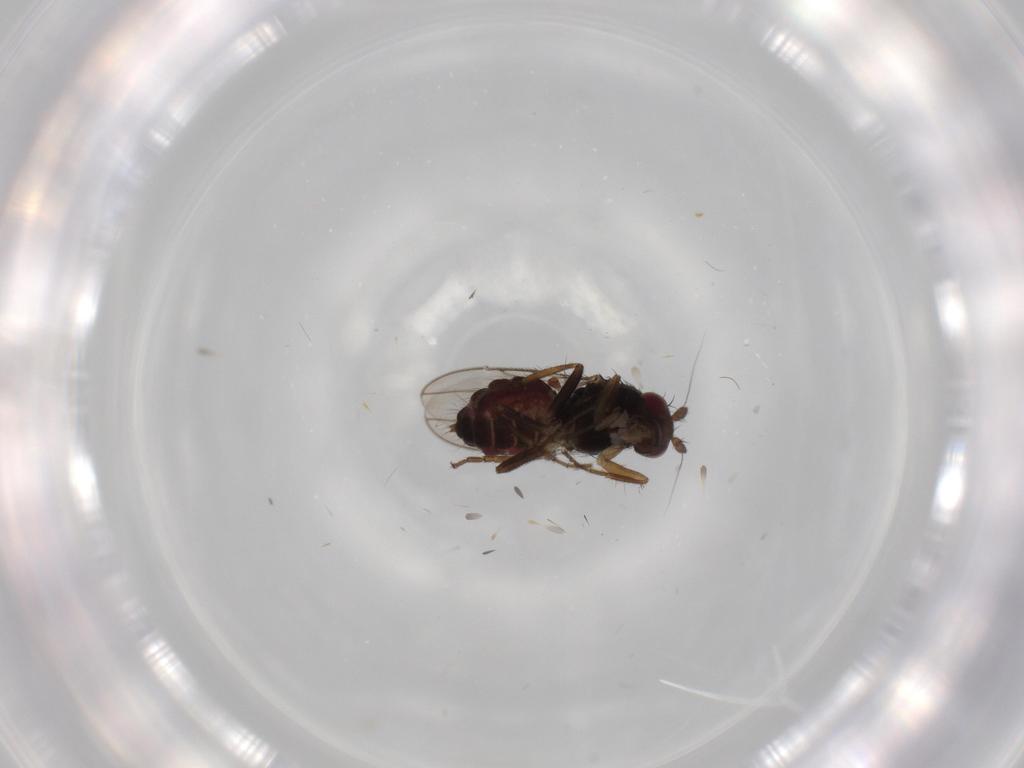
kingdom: Animalia
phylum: Arthropoda
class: Insecta
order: Diptera
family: Sphaeroceridae
